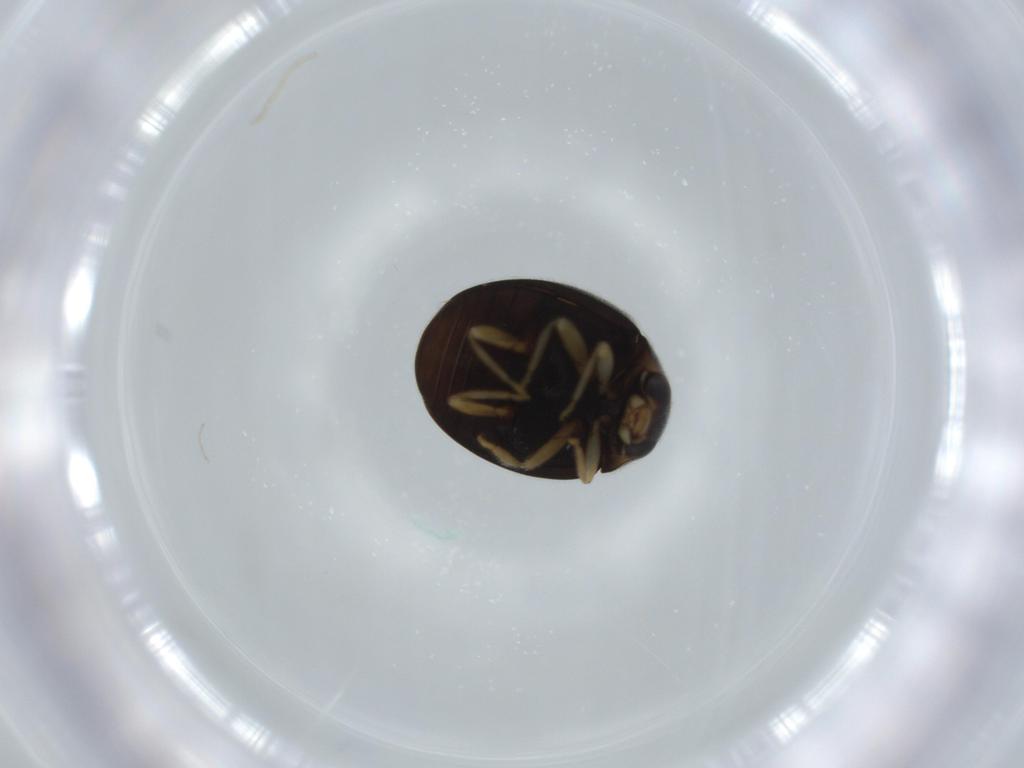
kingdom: Animalia
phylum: Arthropoda
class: Insecta
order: Coleoptera
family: Coccinellidae
